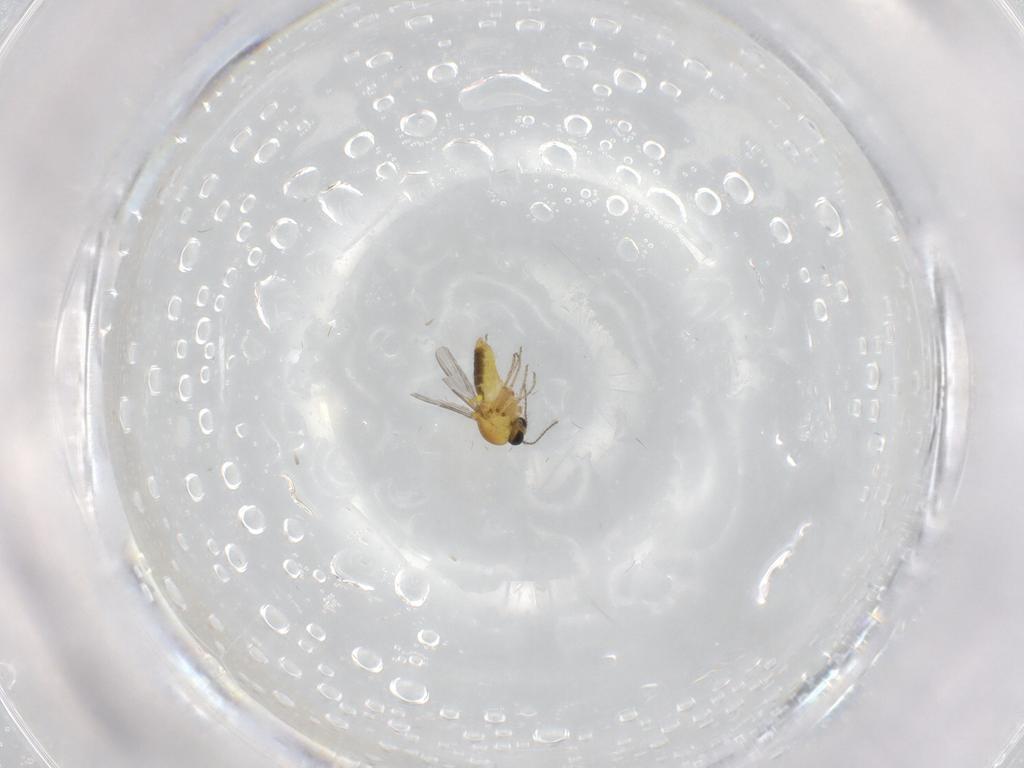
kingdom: Animalia
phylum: Arthropoda
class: Insecta
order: Diptera
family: Ceratopogonidae
